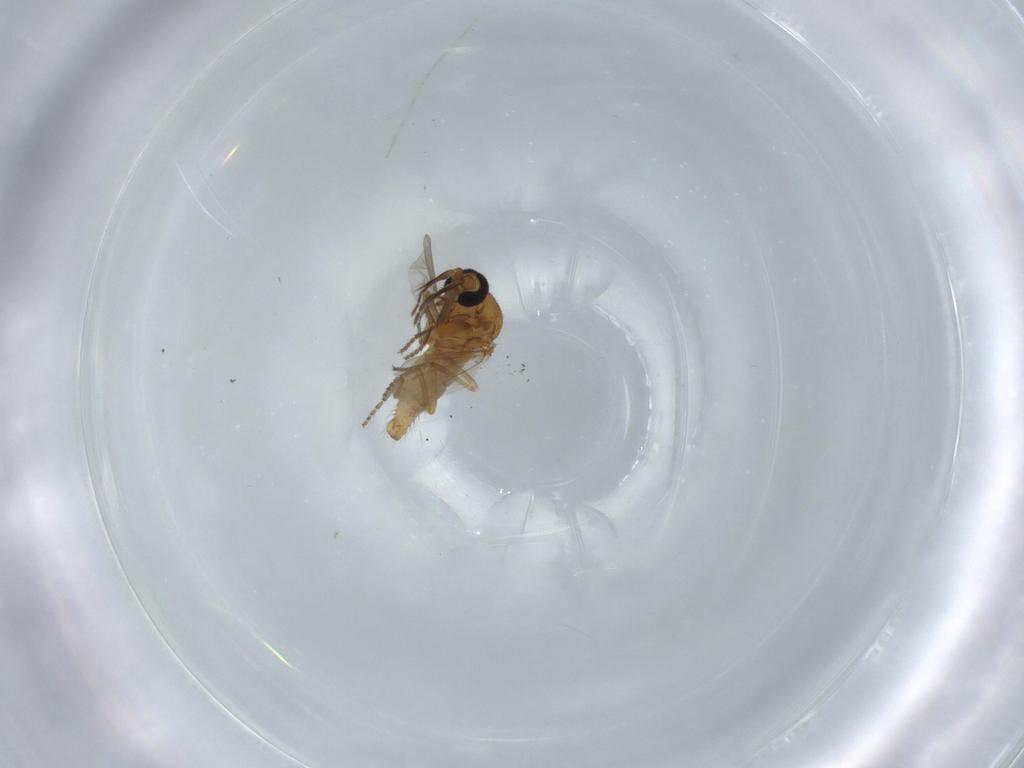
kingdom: Animalia
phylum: Arthropoda
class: Insecta
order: Diptera
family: Ceratopogonidae
